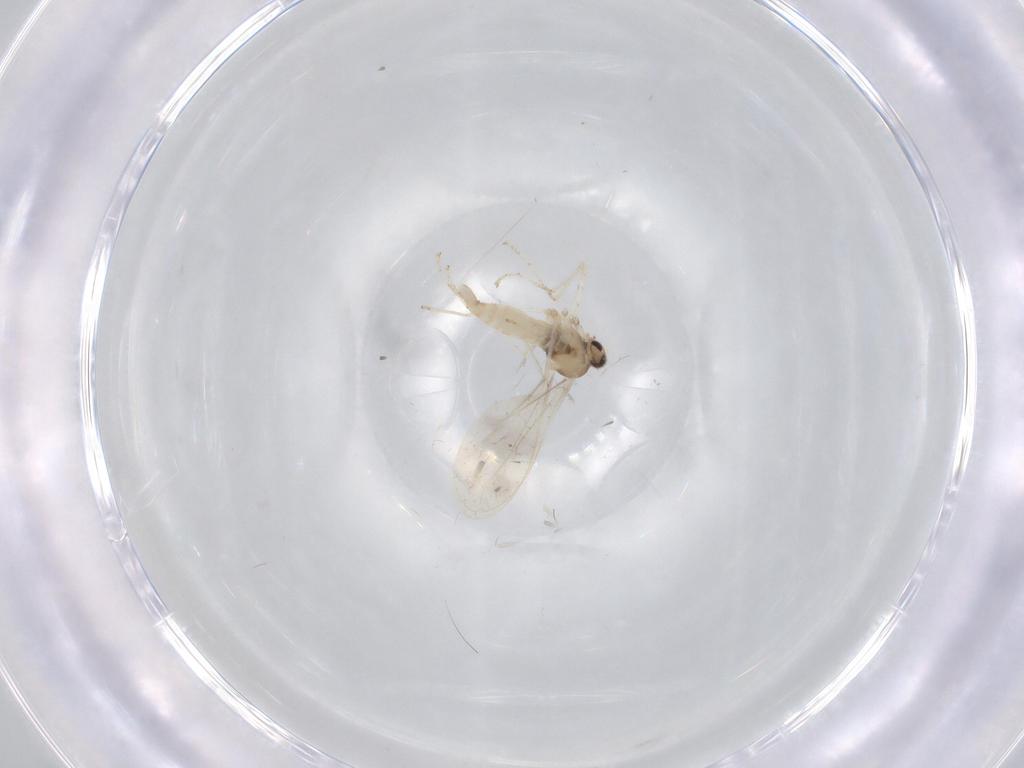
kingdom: Animalia
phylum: Arthropoda
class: Insecta
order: Diptera
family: Cecidomyiidae
